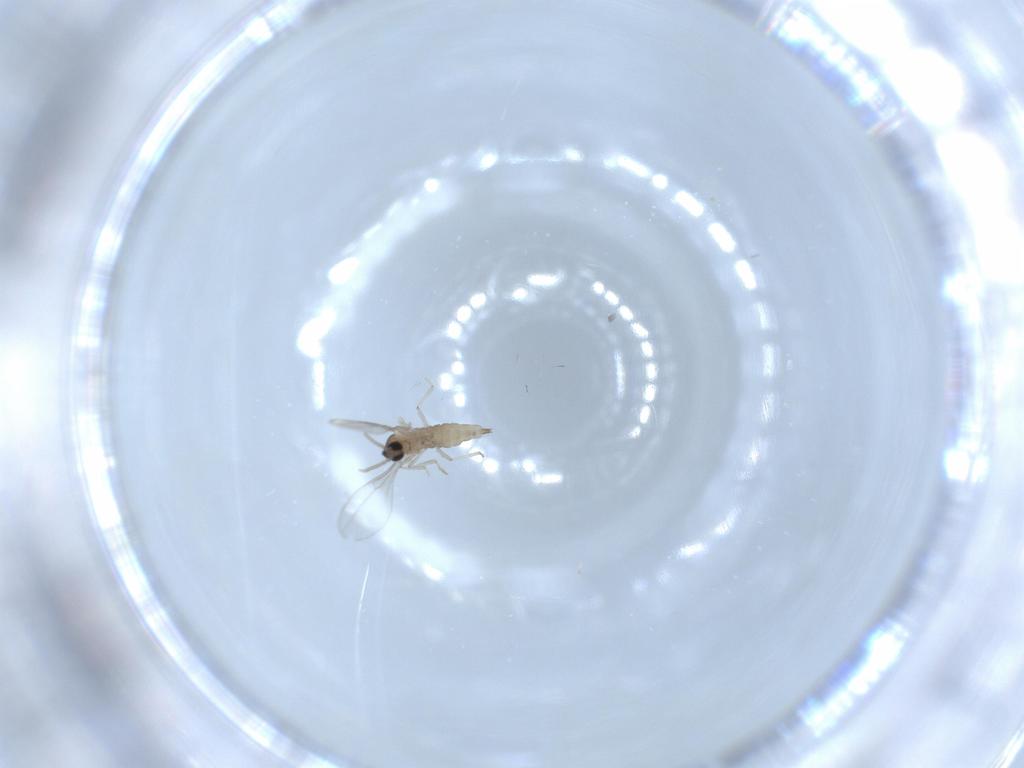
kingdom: Animalia
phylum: Arthropoda
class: Insecta
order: Diptera
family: Cecidomyiidae
